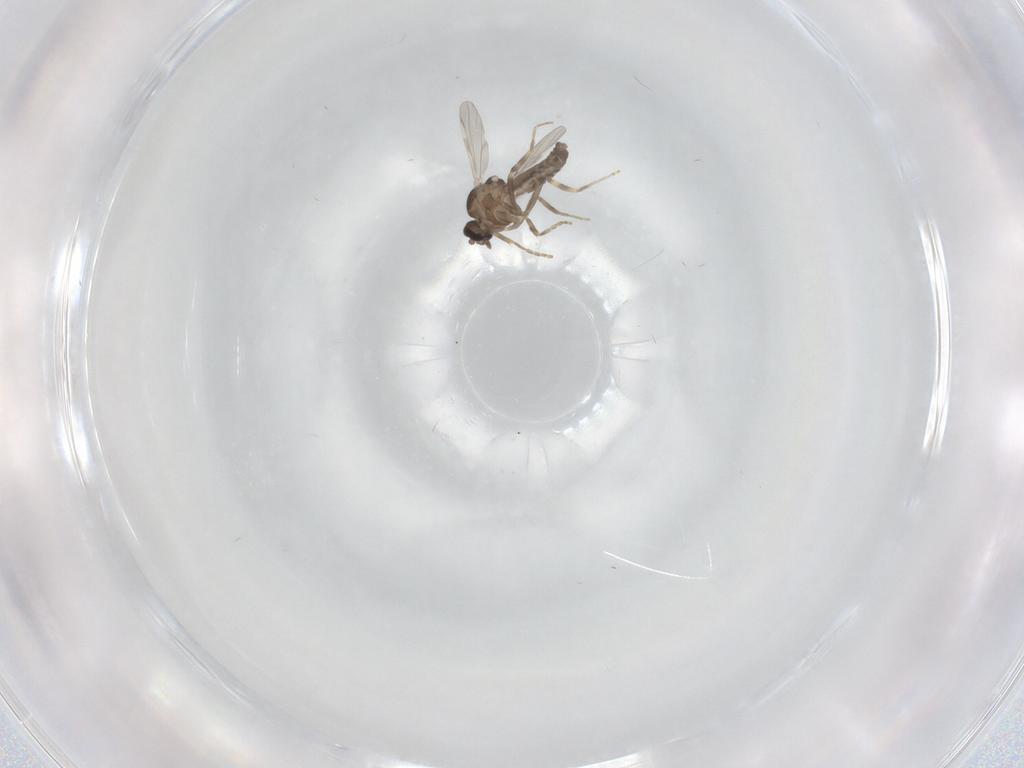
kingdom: Animalia
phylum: Arthropoda
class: Insecta
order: Diptera
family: Ceratopogonidae
